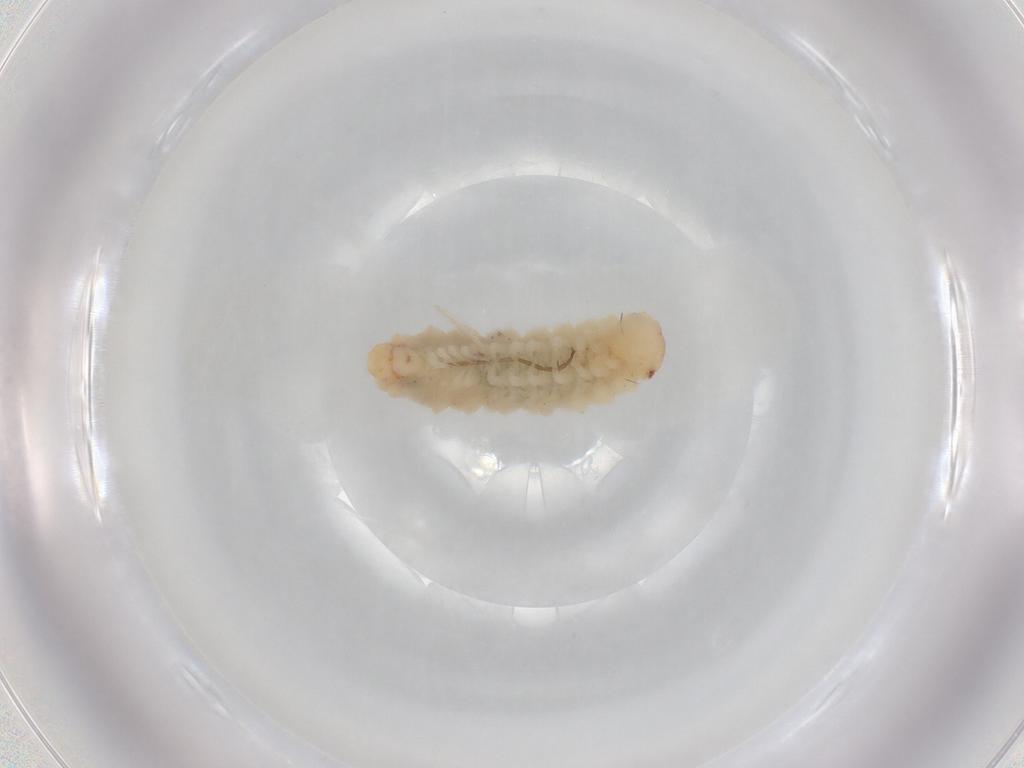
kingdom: Animalia
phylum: Arthropoda
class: Diplopoda
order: Polyxenida
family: Polyxenidae
